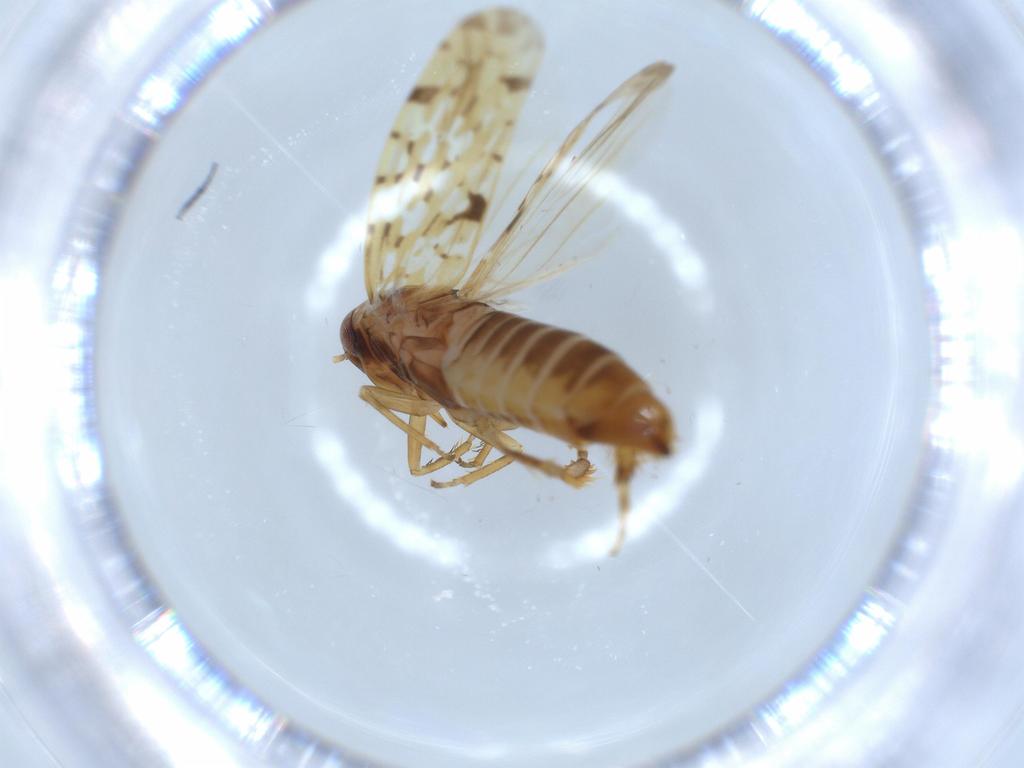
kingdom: Animalia
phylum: Arthropoda
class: Insecta
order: Hemiptera
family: Cicadellidae
